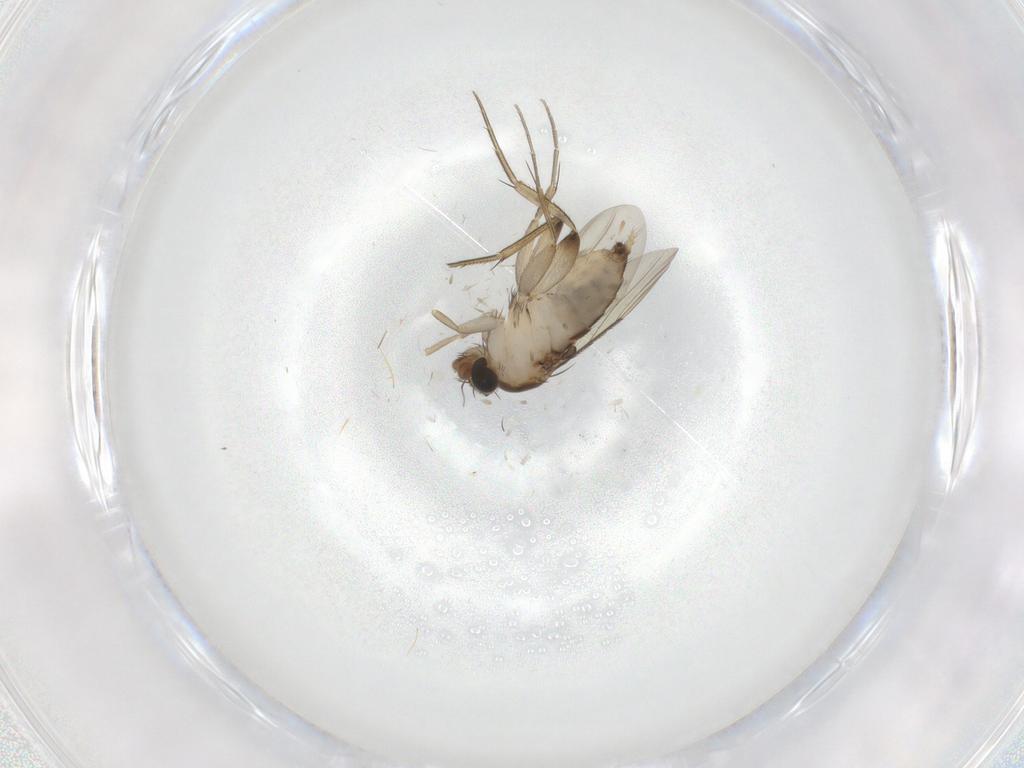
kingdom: Animalia
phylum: Arthropoda
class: Insecta
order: Diptera
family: Phoridae
